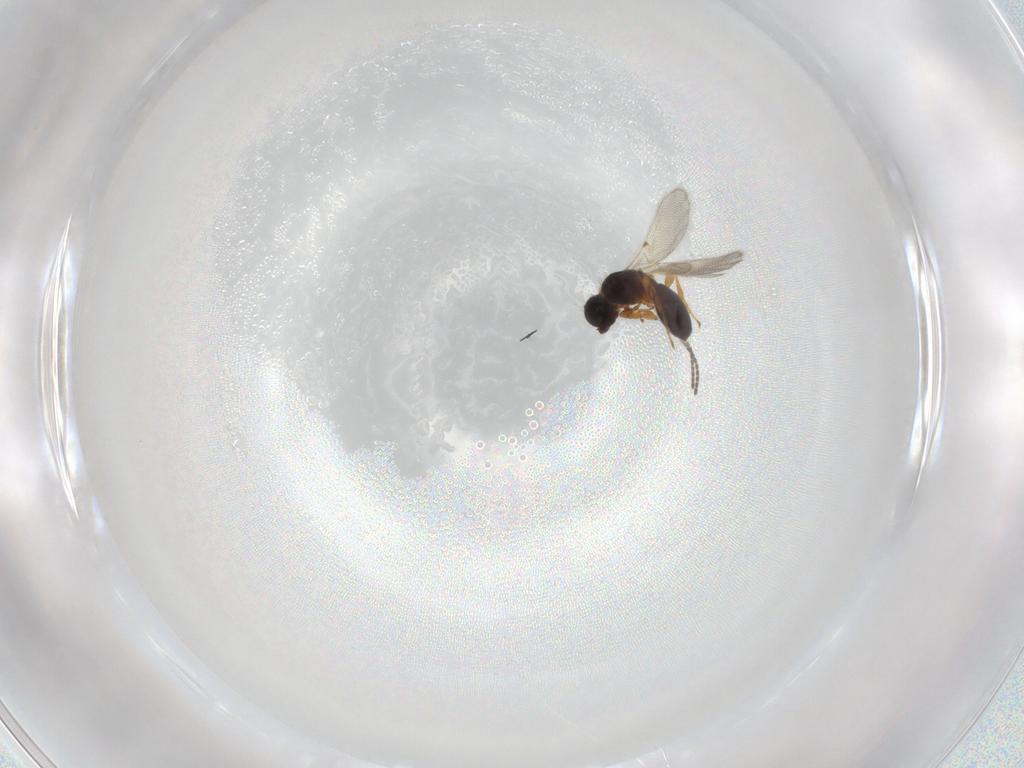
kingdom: Animalia
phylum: Arthropoda
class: Insecta
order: Hymenoptera
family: Diapriidae
